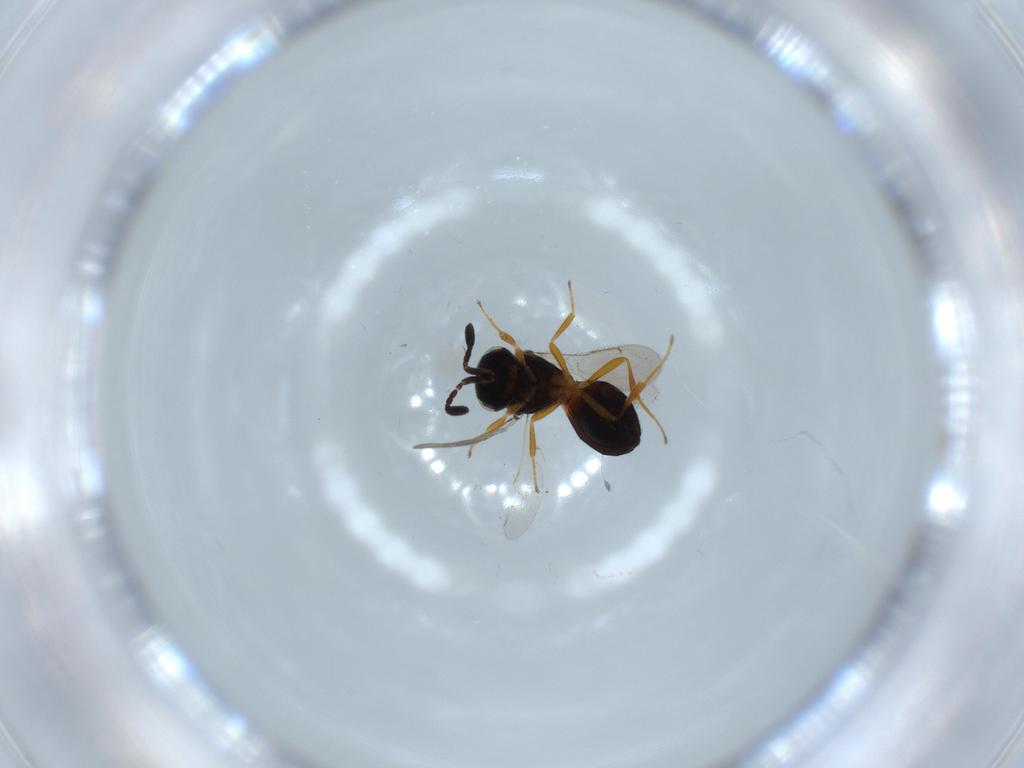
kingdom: Animalia
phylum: Arthropoda
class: Insecta
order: Hymenoptera
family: Scelionidae
